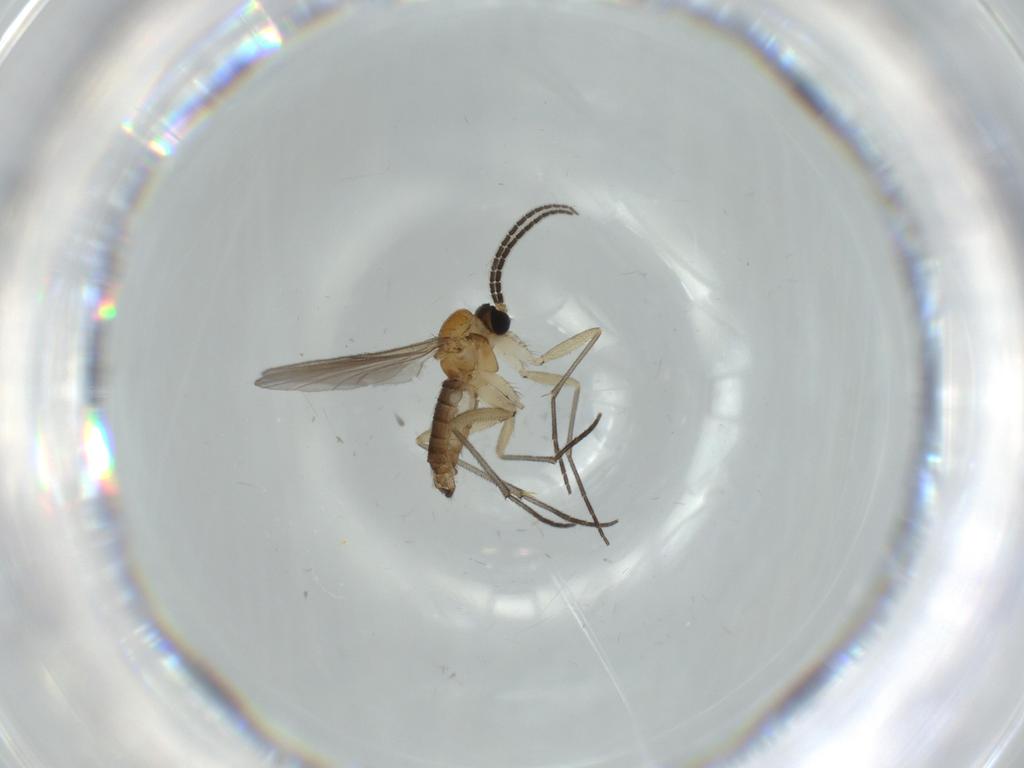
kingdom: Animalia
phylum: Arthropoda
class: Insecta
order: Diptera
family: Sciaridae
